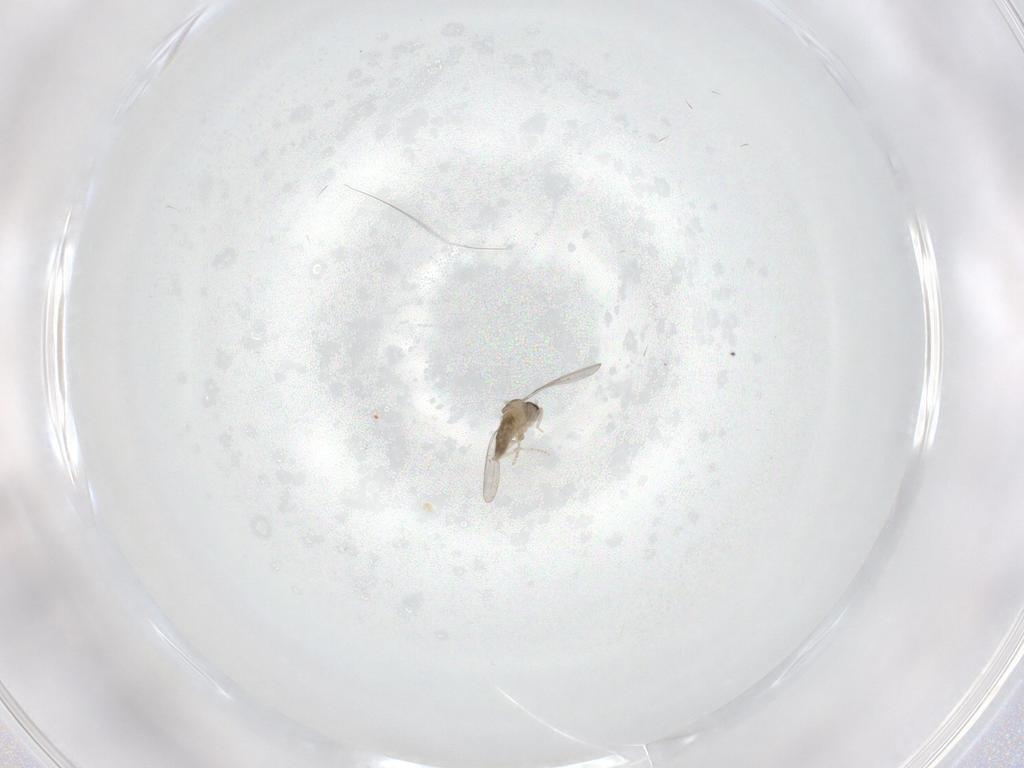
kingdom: Animalia
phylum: Arthropoda
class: Insecta
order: Diptera
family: Cecidomyiidae
